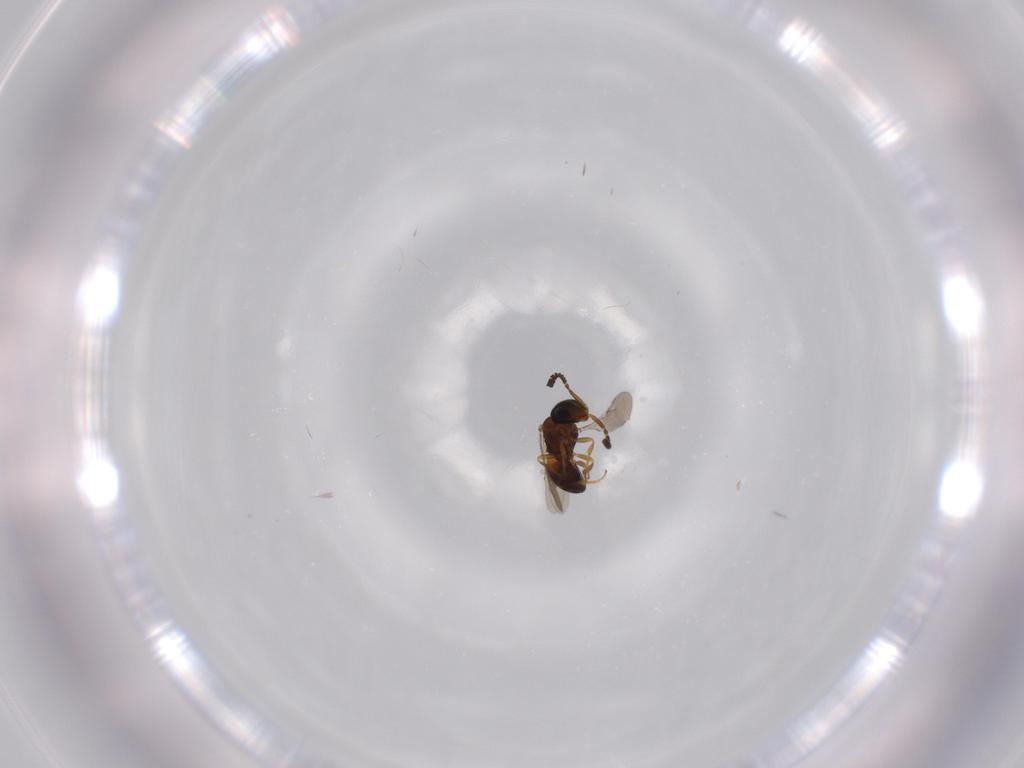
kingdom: Animalia
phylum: Arthropoda
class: Insecta
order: Hymenoptera
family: Scelionidae
